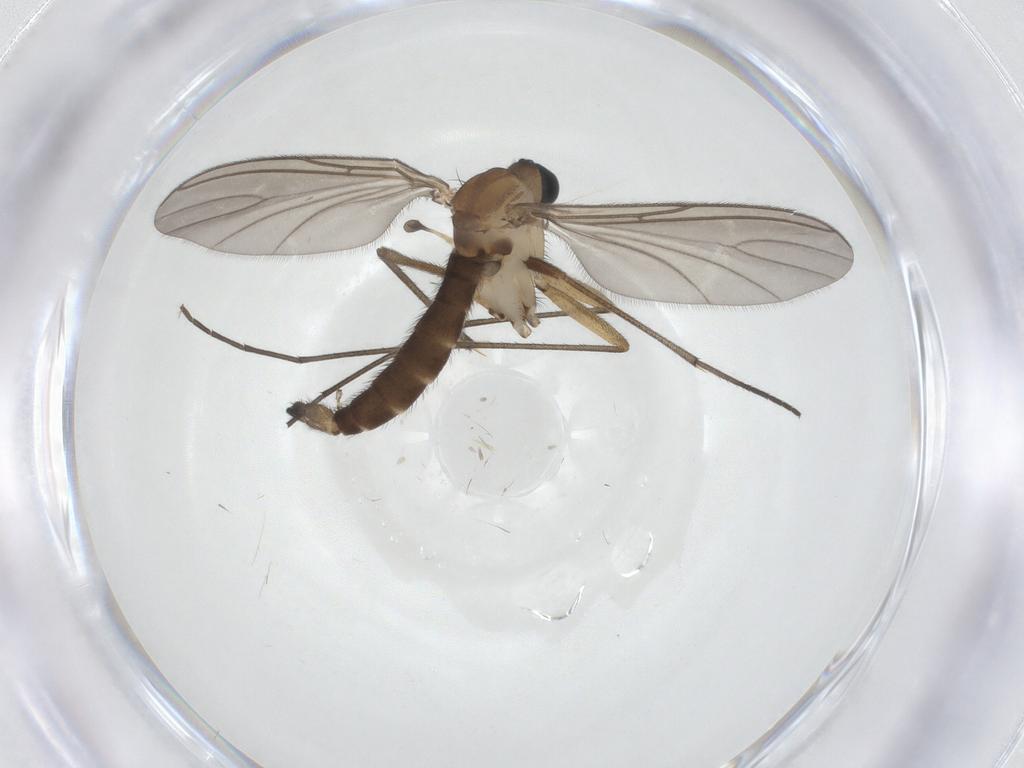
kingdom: Animalia
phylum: Arthropoda
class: Insecta
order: Diptera
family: Sciaridae
